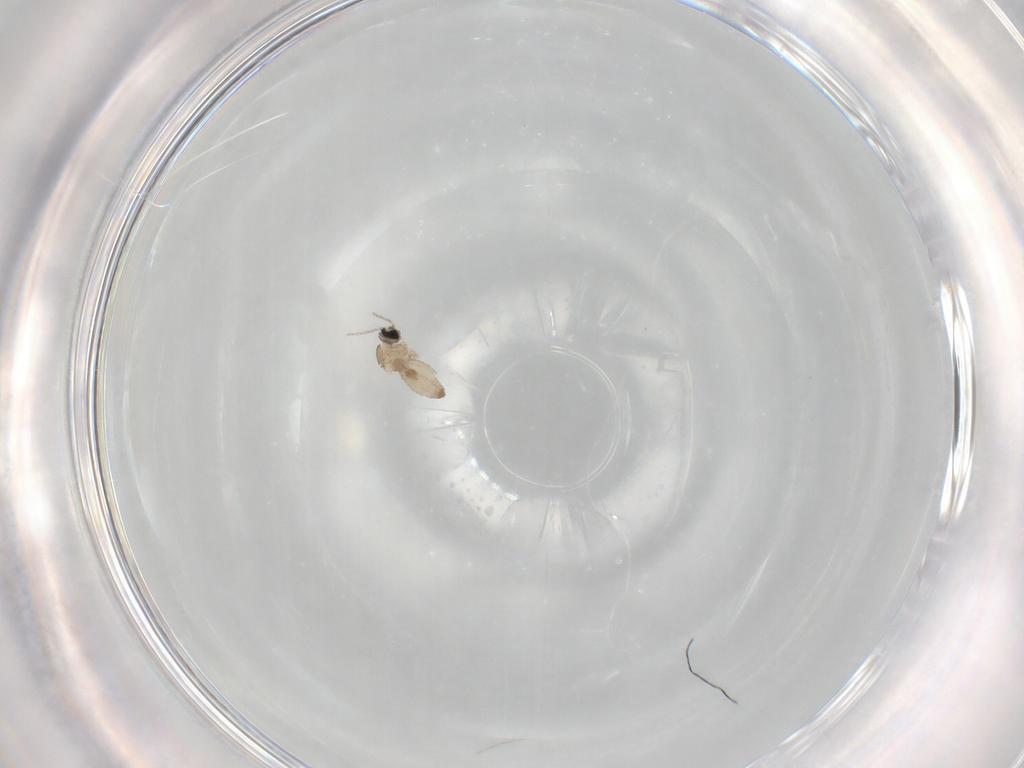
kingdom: Animalia
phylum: Arthropoda
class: Insecta
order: Diptera
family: Cecidomyiidae
